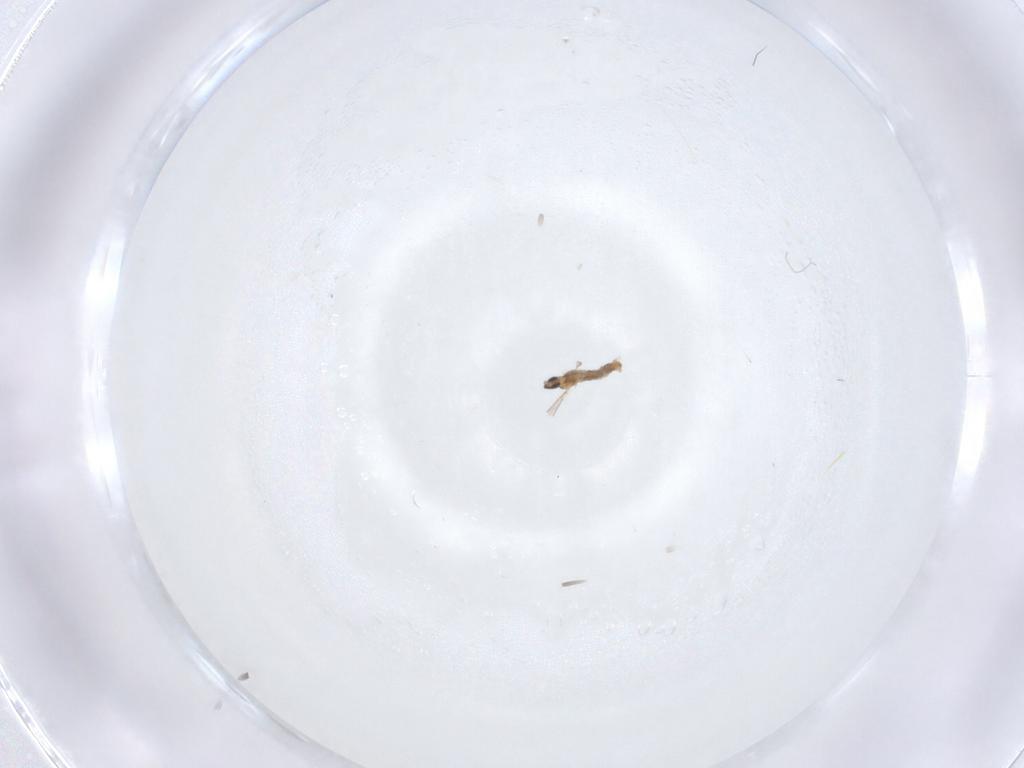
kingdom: Animalia
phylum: Arthropoda
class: Insecta
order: Diptera
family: Cecidomyiidae
